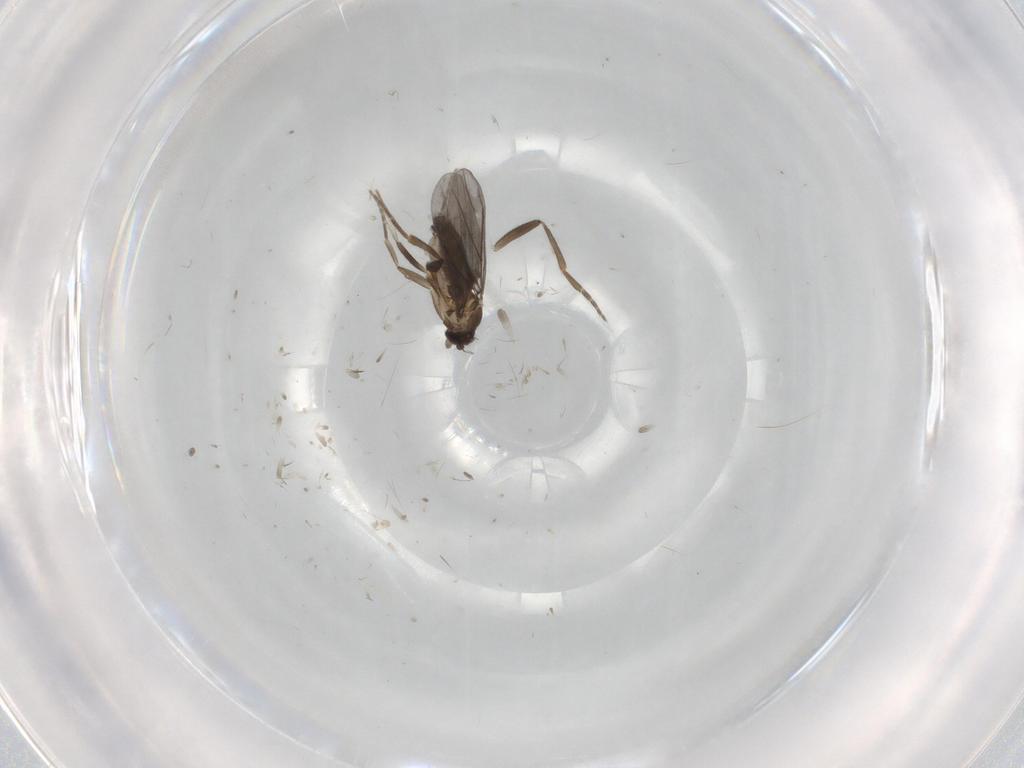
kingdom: Animalia
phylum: Arthropoda
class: Insecta
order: Diptera
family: Phoridae
